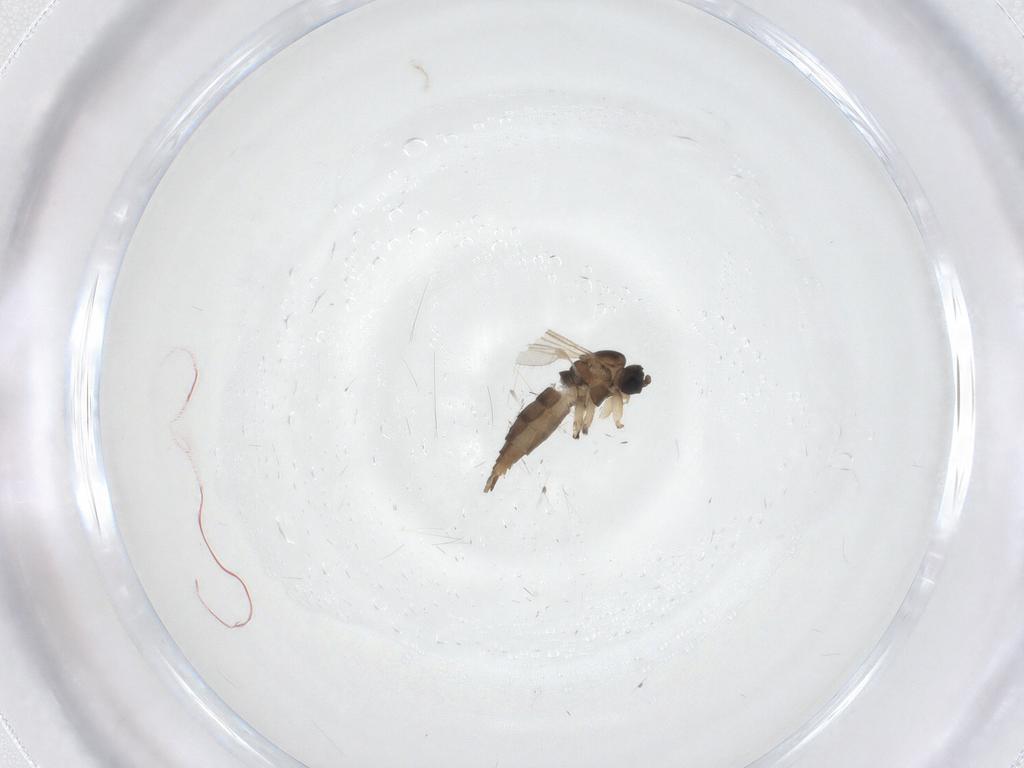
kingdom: Animalia
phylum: Arthropoda
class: Insecta
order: Diptera
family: Sciaridae
